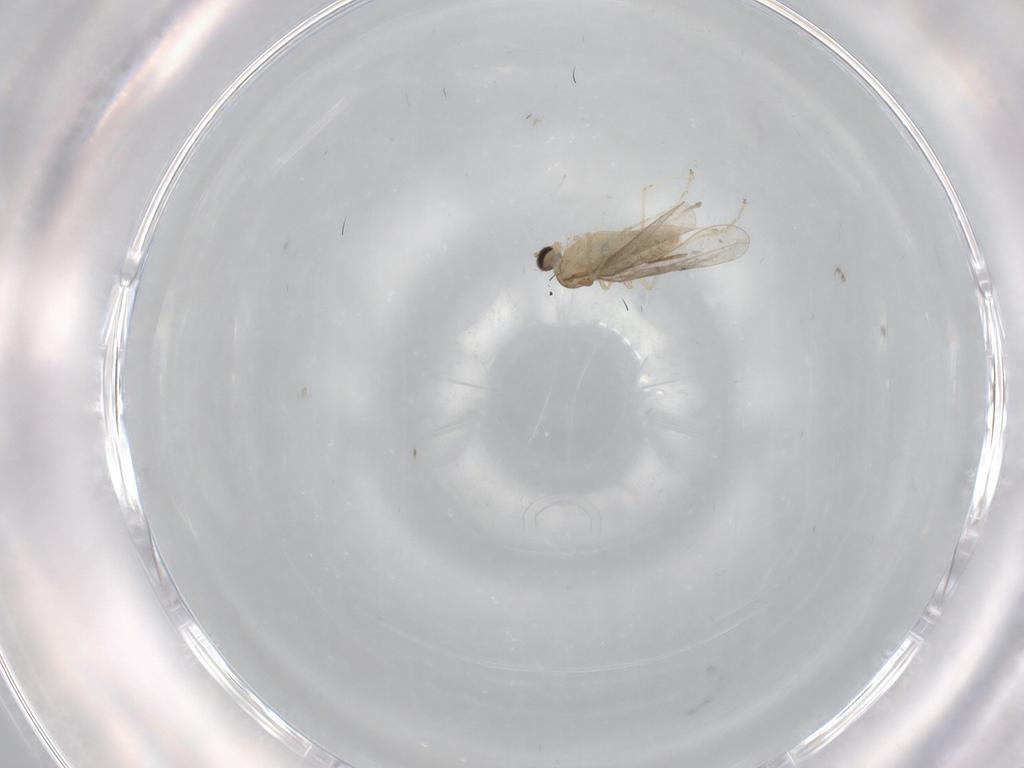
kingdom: Animalia
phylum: Arthropoda
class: Insecta
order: Diptera
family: Cecidomyiidae
